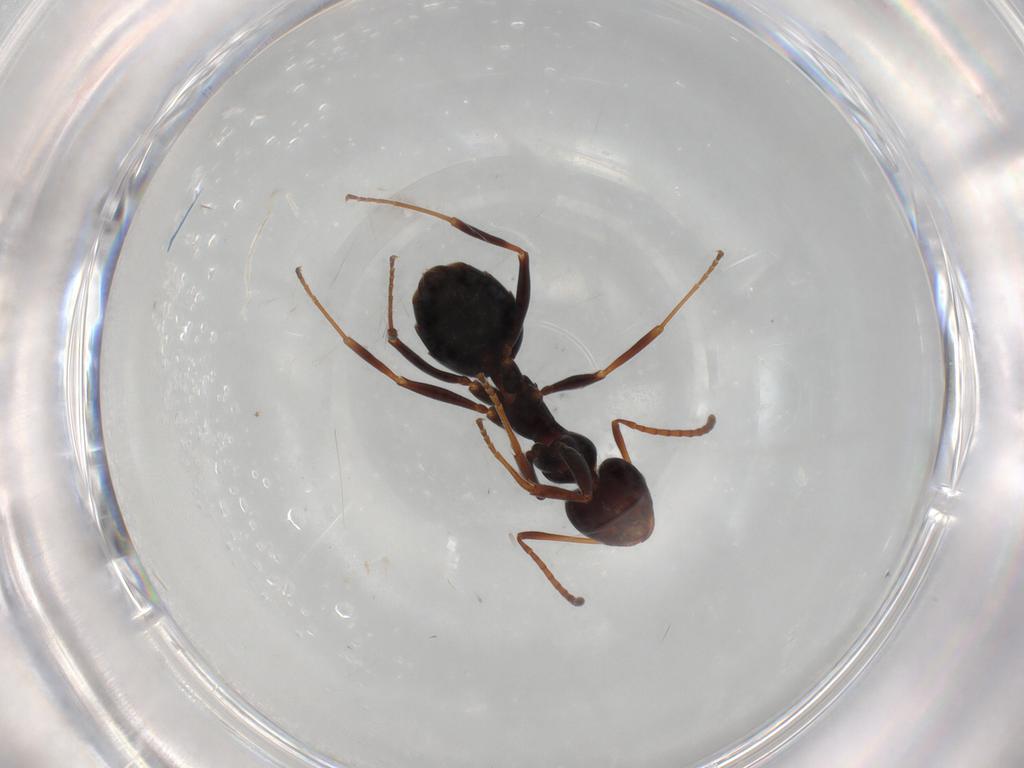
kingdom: Animalia
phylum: Arthropoda
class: Insecta
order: Hymenoptera
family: Formicidae
